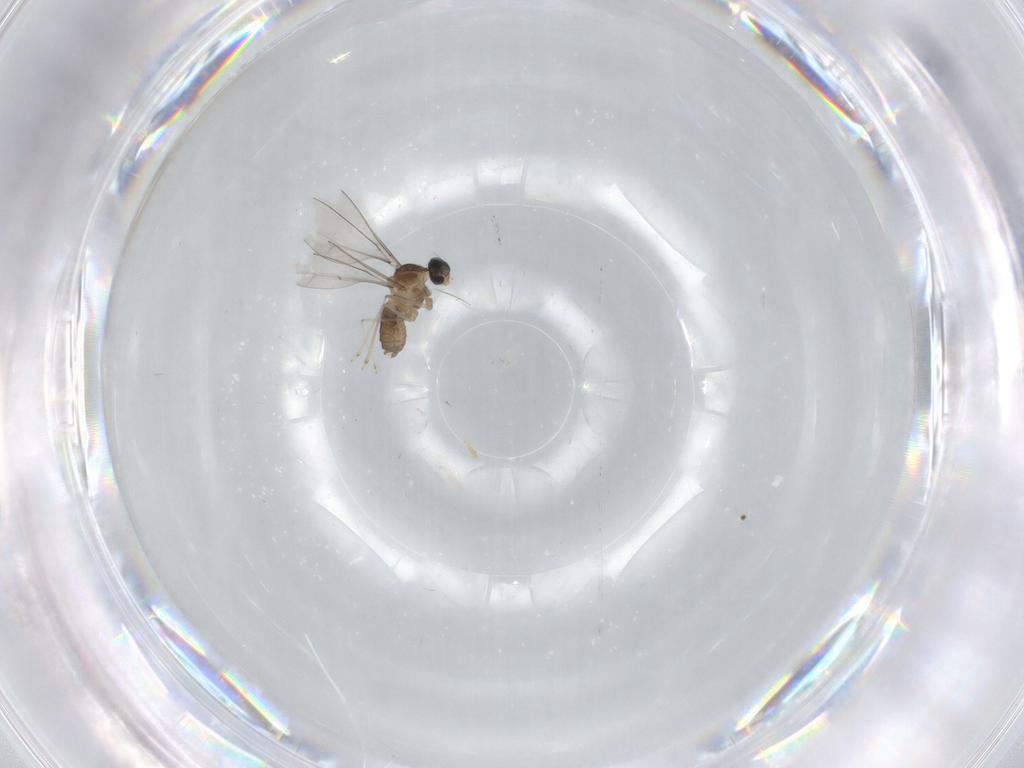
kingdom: Animalia
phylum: Arthropoda
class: Insecta
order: Diptera
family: Cecidomyiidae
